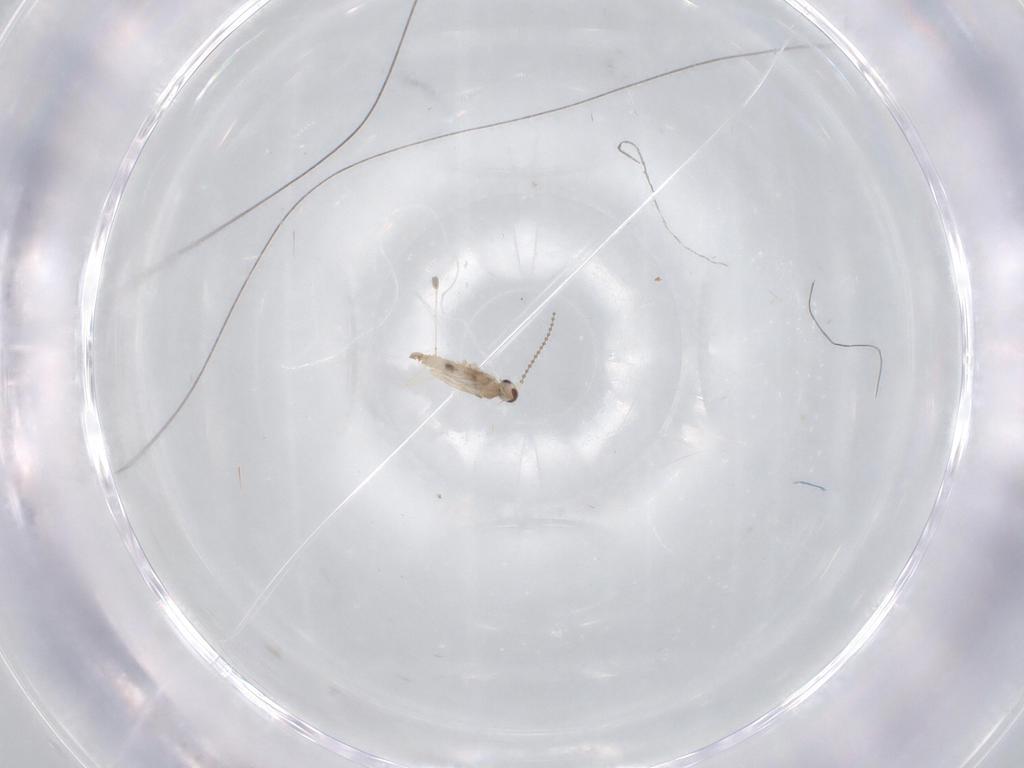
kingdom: Animalia
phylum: Arthropoda
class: Insecta
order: Diptera
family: Cecidomyiidae
